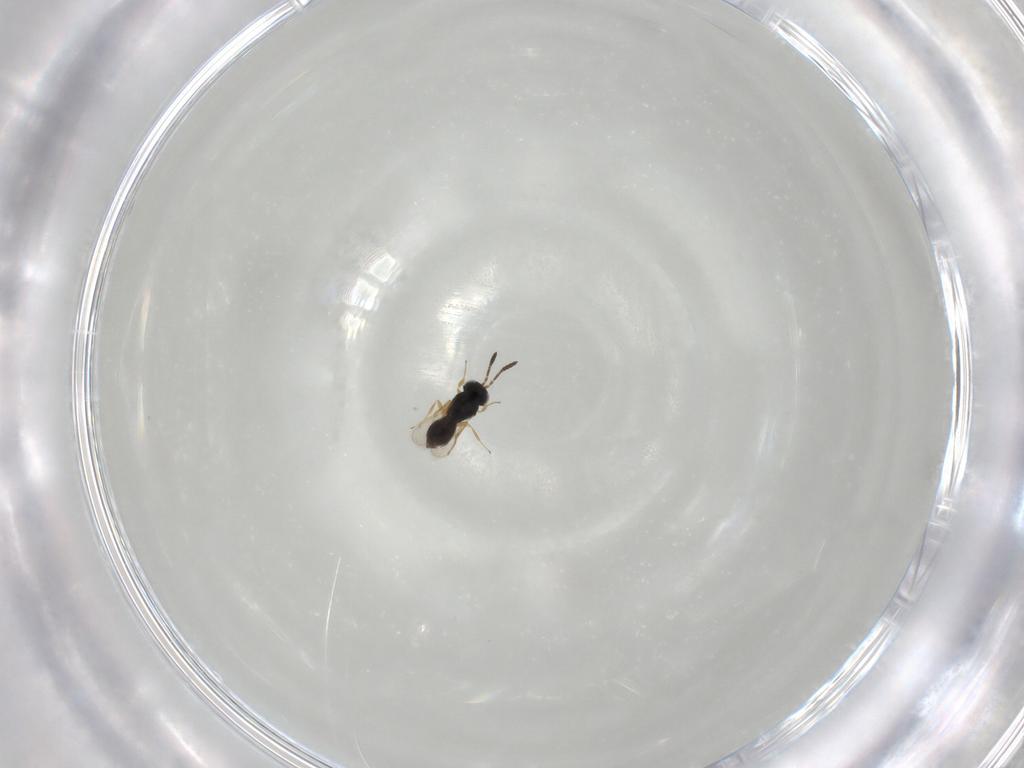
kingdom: Animalia
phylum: Arthropoda
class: Insecta
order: Hymenoptera
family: Scelionidae
